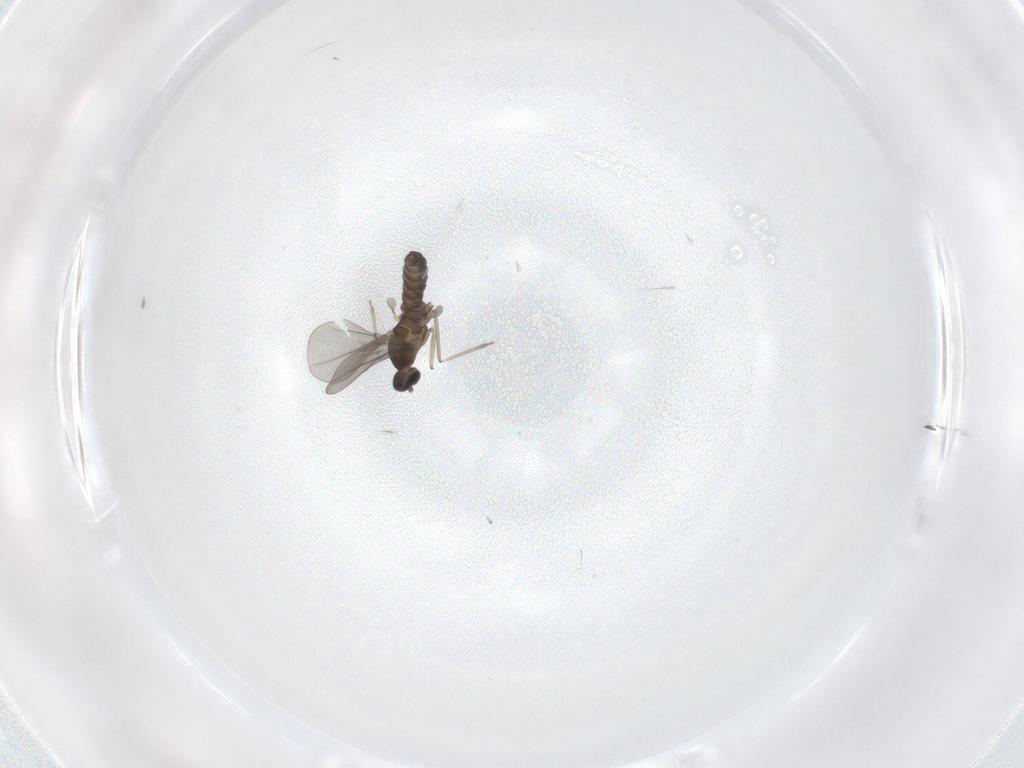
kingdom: Animalia
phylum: Arthropoda
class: Insecta
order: Diptera
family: Cecidomyiidae
